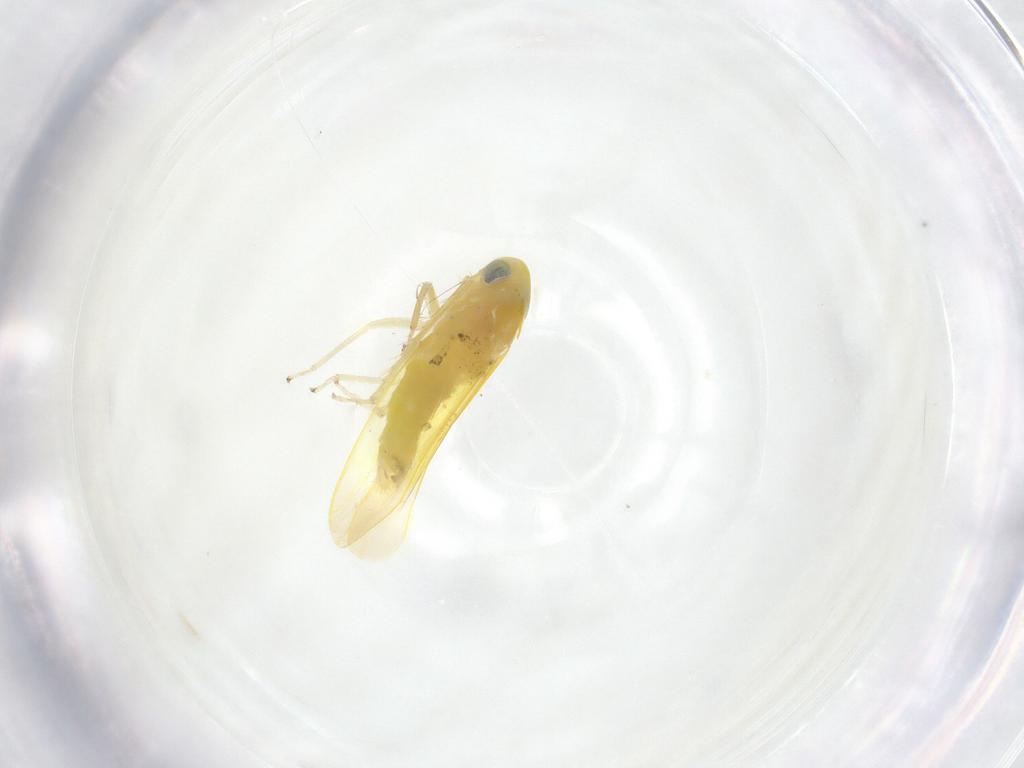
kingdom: Animalia
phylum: Arthropoda
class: Insecta
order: Hemiptera
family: Cicadellidae
